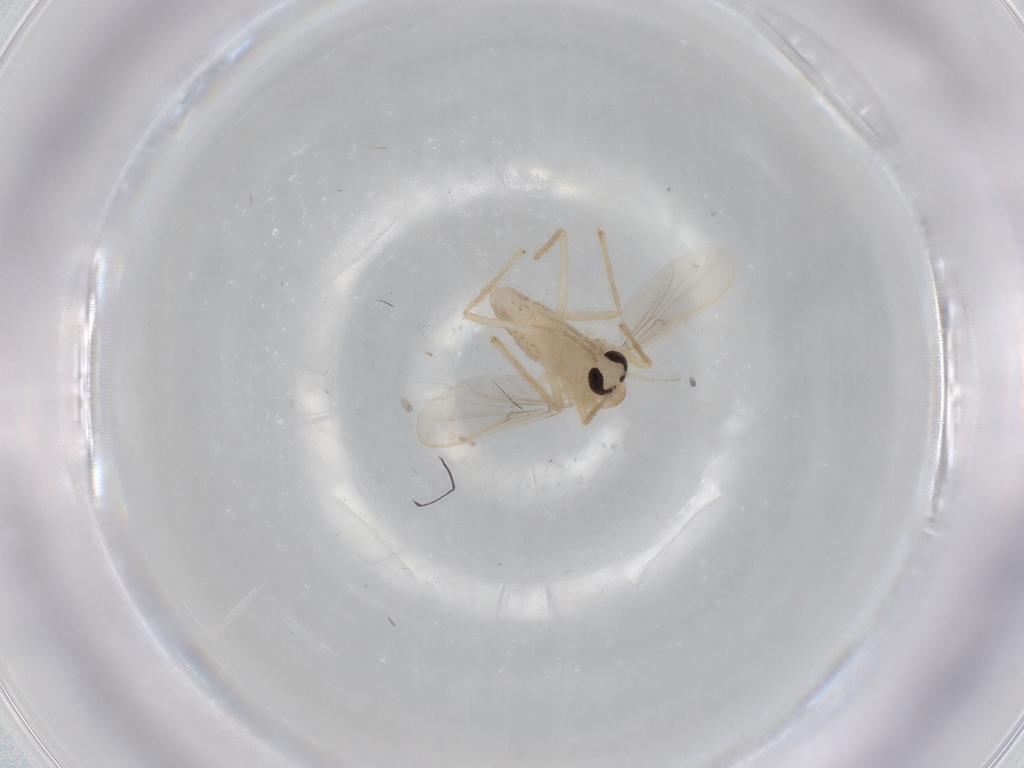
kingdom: Animalia
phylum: Arthropoda
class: Insecta
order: Diptera
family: Chironomidae
